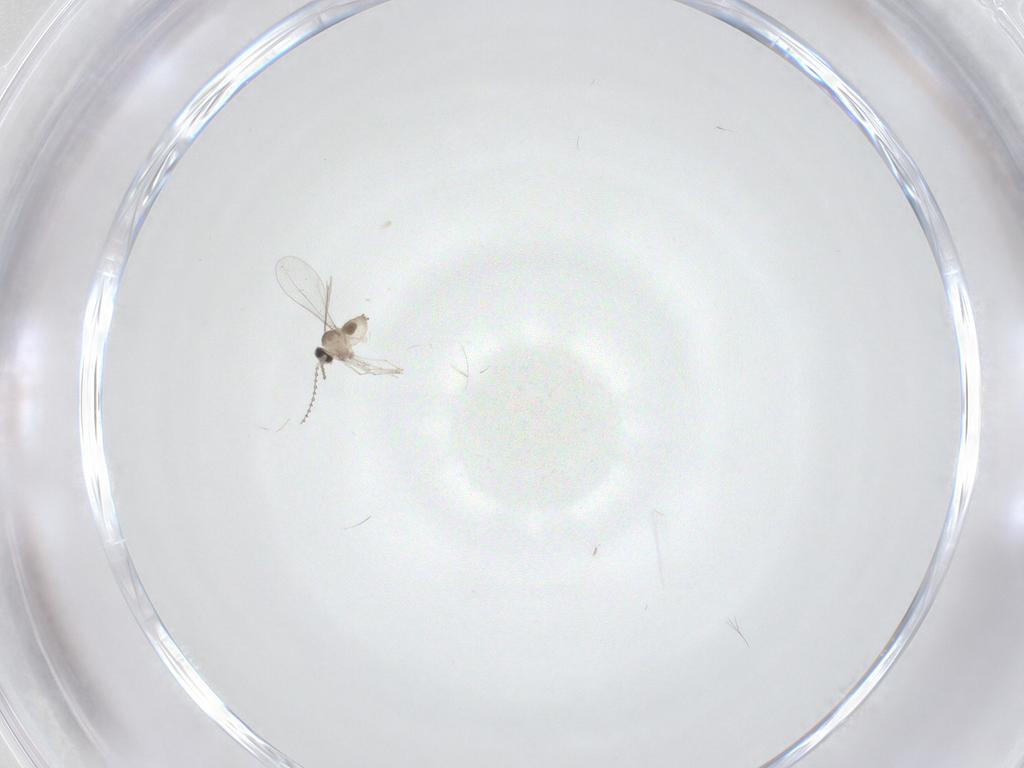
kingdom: Animalia
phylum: Arthropoda
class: Insecta
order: Diptera
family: Cecidomyiidae
